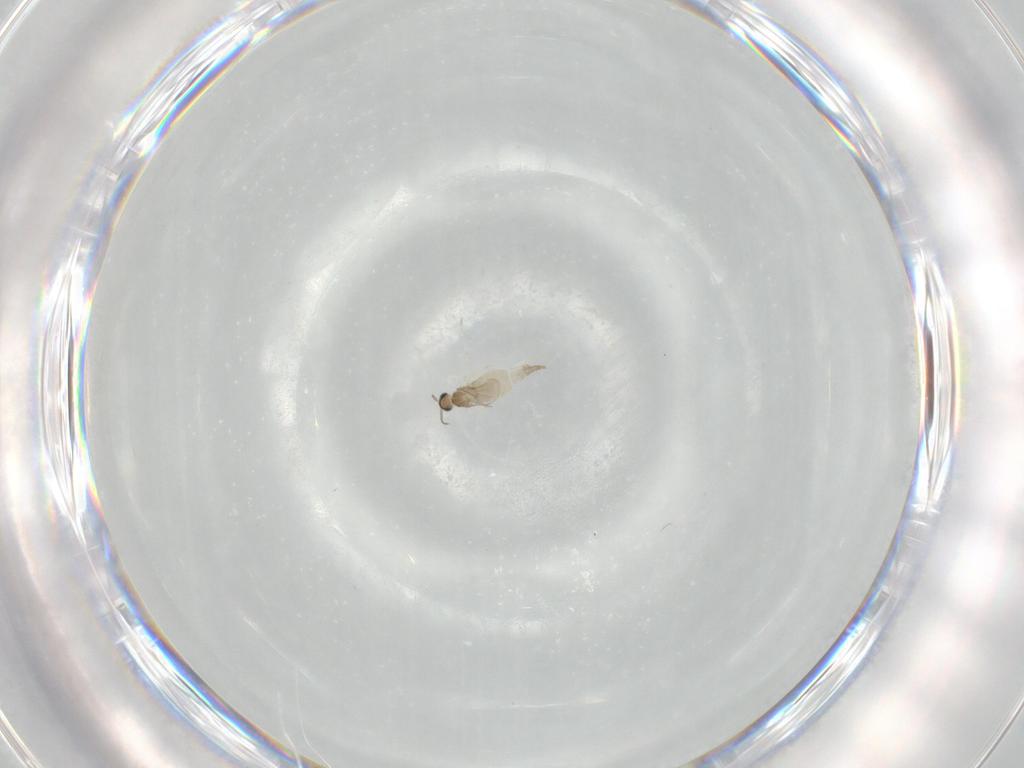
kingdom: Animalia
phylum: Arthropoda
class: Insecta
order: Diptera
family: Ceratopogonidae
